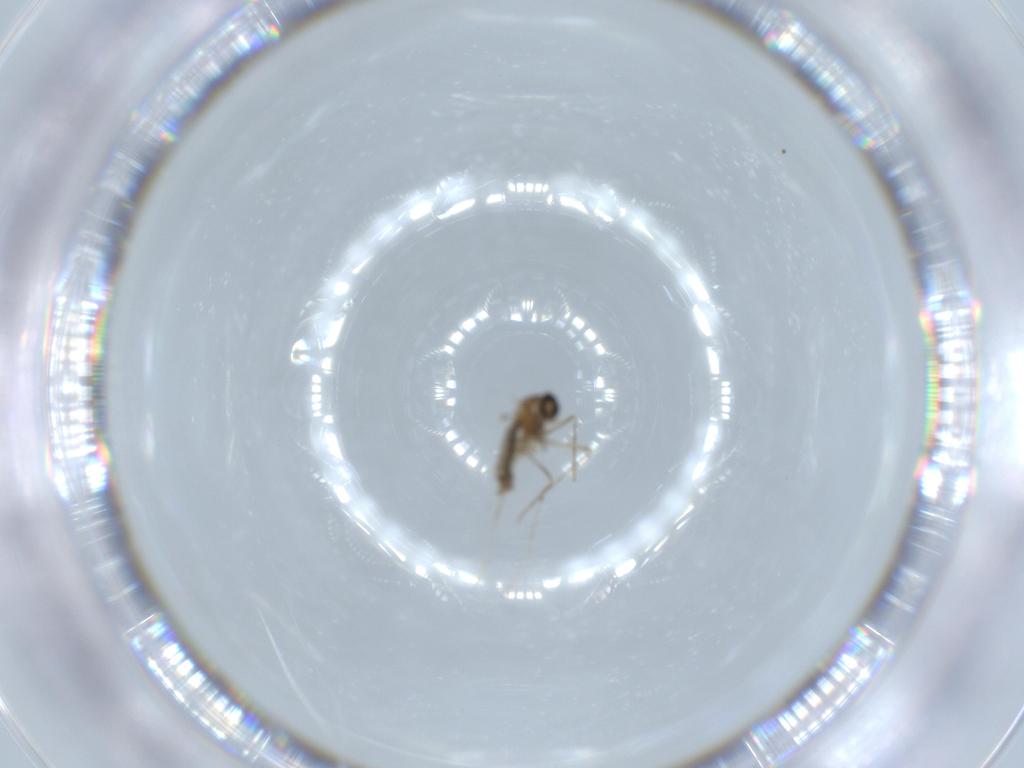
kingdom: Animalia
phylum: Arthropoda
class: Insecta
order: Diptera
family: Cecidomyiidae
